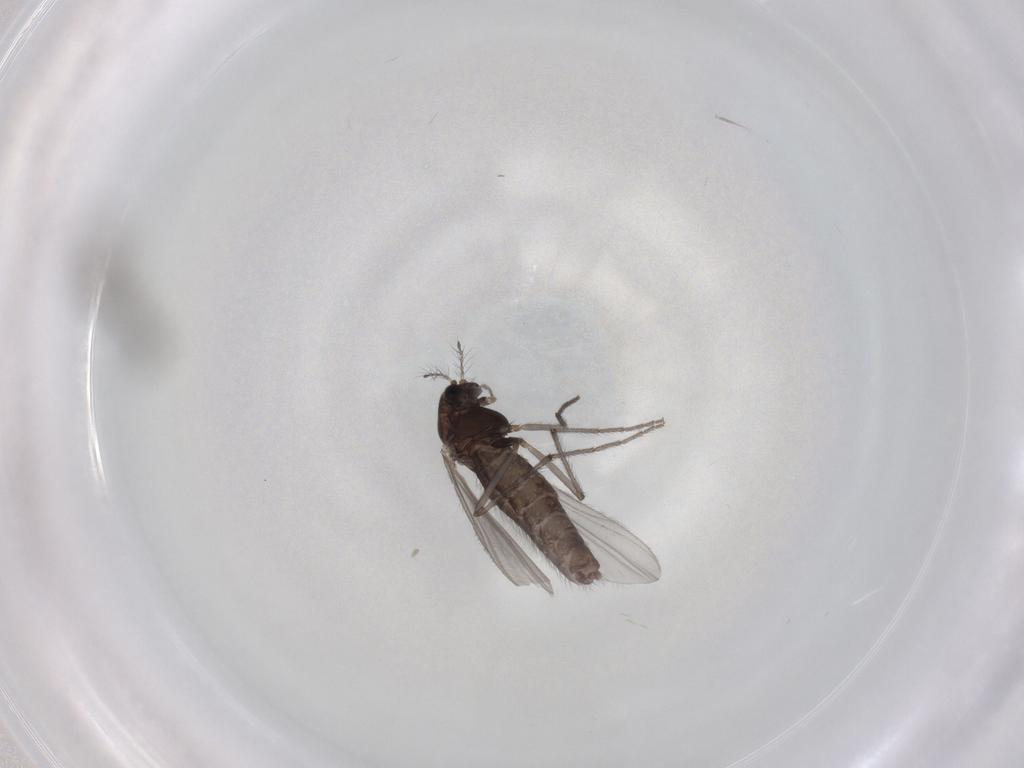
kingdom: Animalia
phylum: Arthropoda
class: Insecta
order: Diptera
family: Chironomidae
